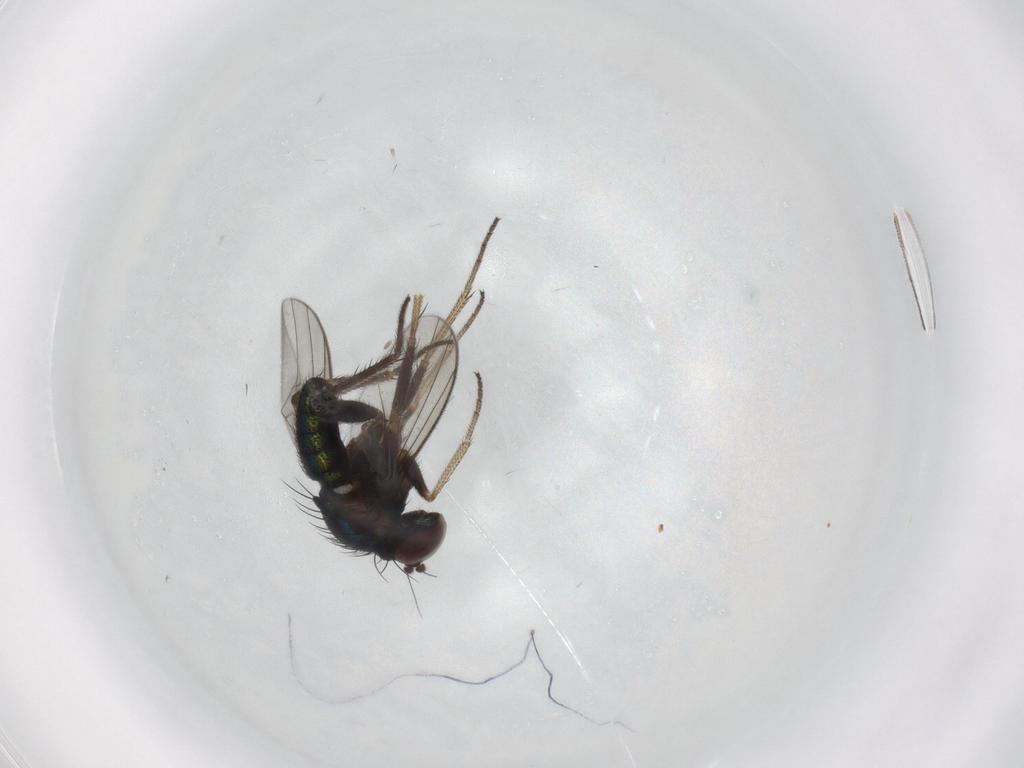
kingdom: Animalia
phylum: Arthropoda
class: Insecta
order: Diptera
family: Dolichopodidae
